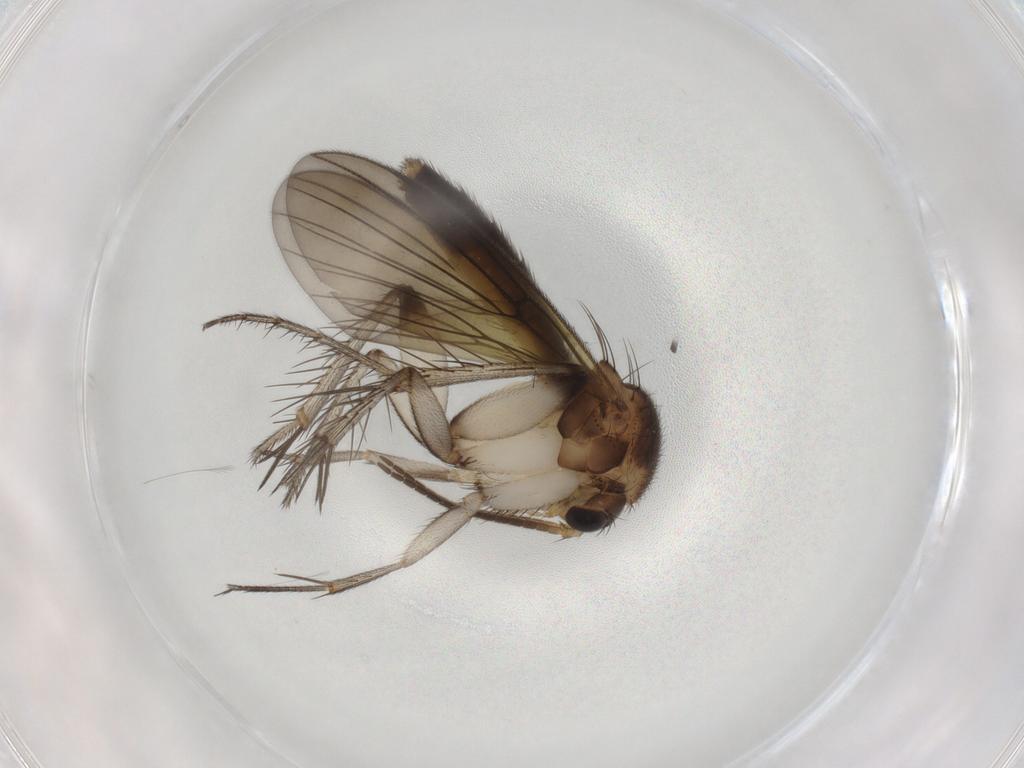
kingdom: Animalia
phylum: Arthropoda
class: Insecta
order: Diptera
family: Mycetophilidae
